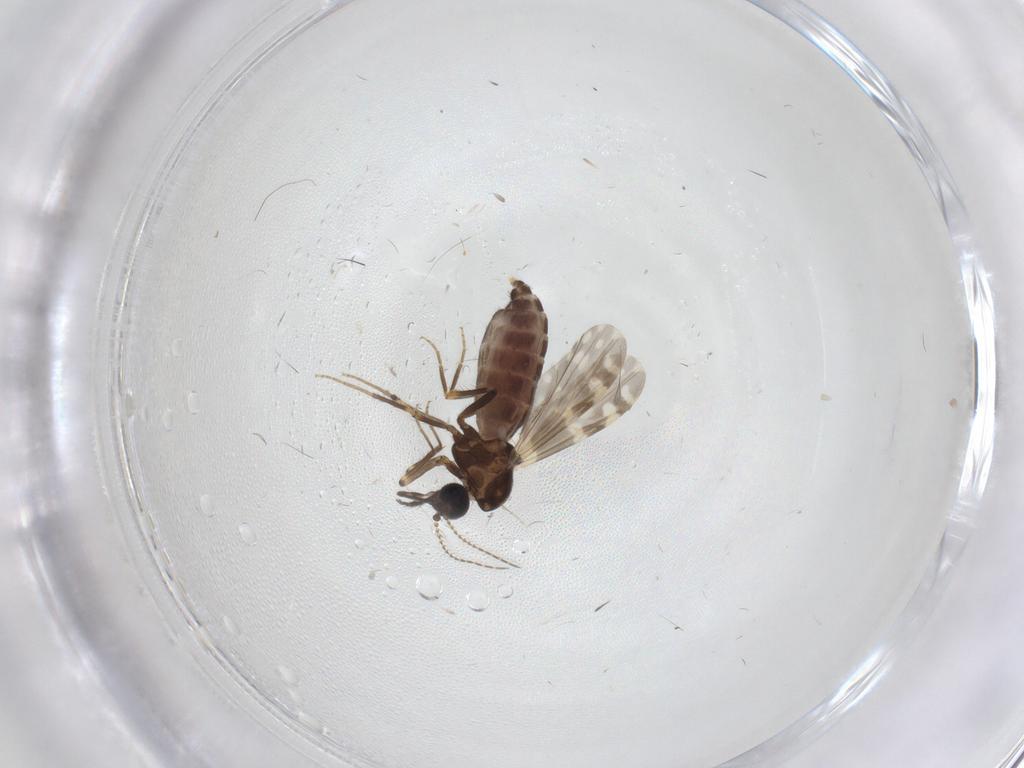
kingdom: Animalia
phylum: Arthropoda
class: Insecta
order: Diptera
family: Ceratopogonidae
